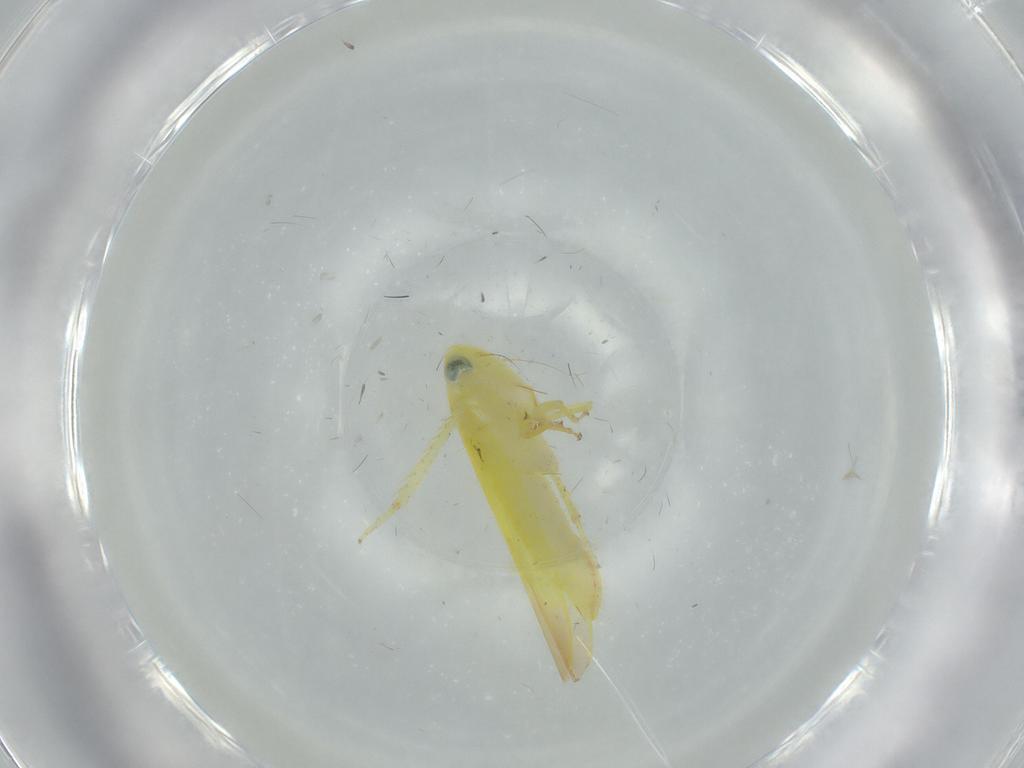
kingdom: Animalia
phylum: Arthropoda
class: Insecta
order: Hemiptera
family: Cicadellidae
